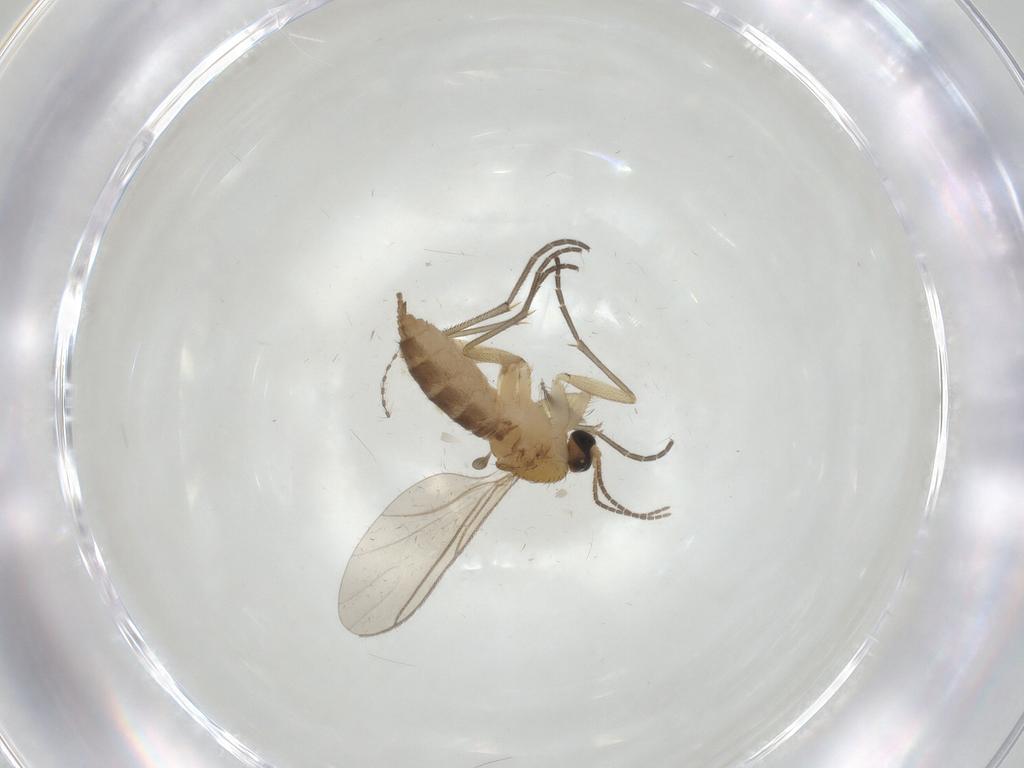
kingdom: Animalia
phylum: Arthropoda
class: Insecta
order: Diptera
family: Sciaridae
